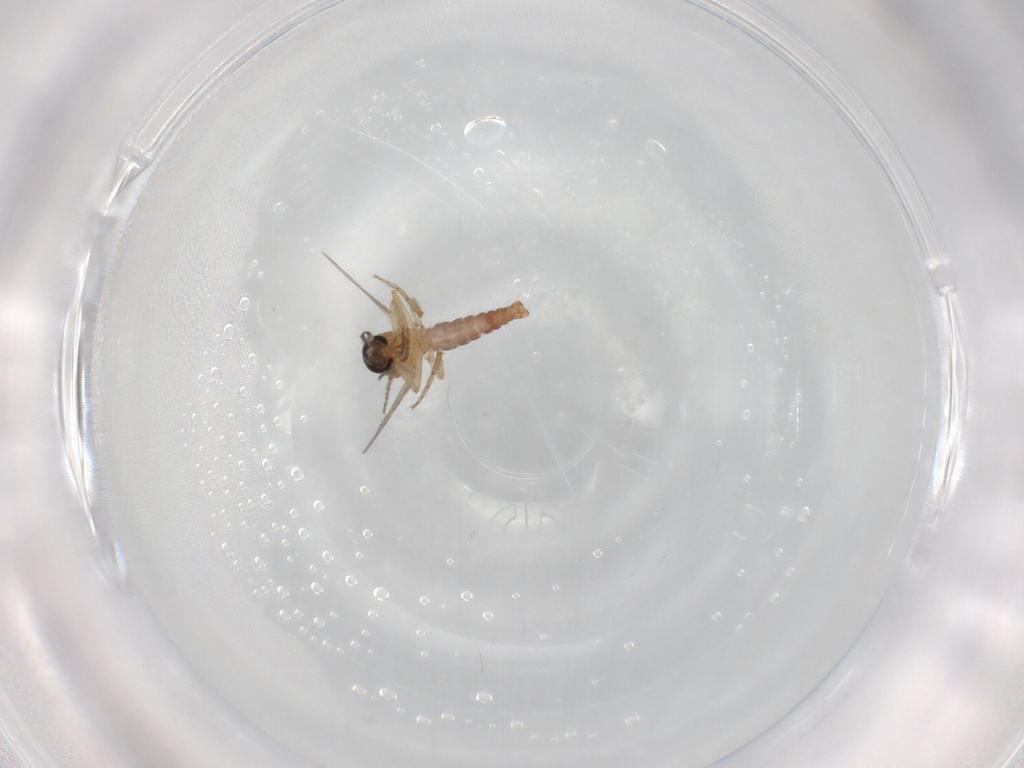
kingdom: Animalia
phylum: Arthropoda
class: Insecta
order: Diptera
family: Ceratopogonidae
